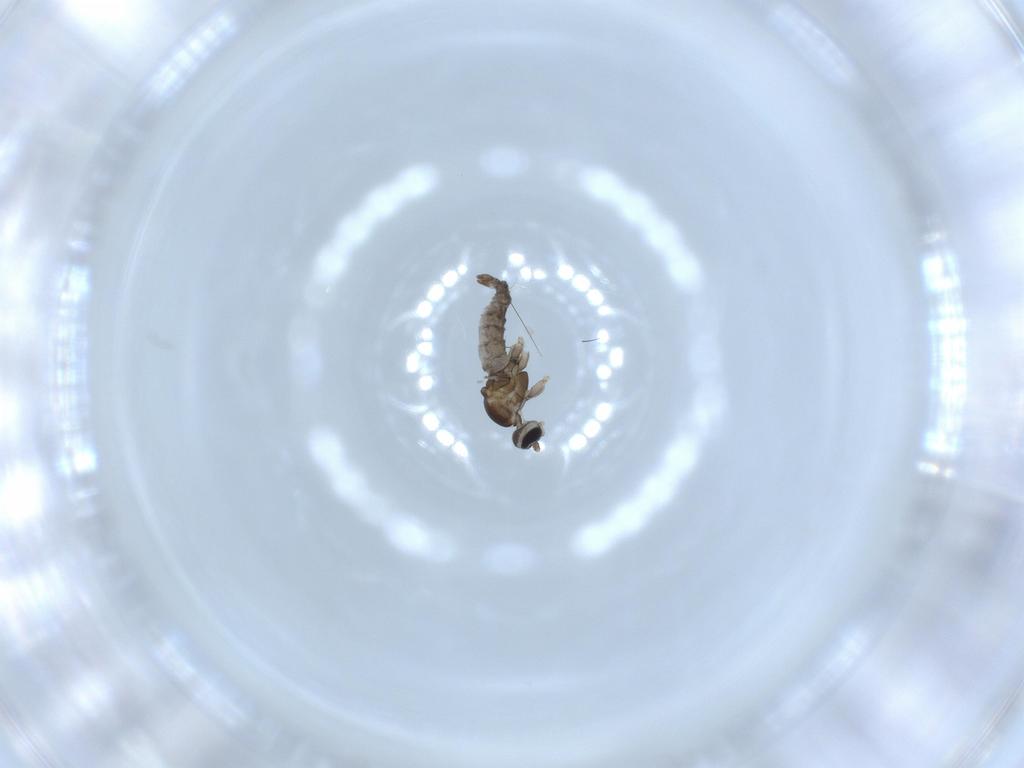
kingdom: Animalia
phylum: Arthropoda
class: Insecta
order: Diptera
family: Cecidomyiidae
